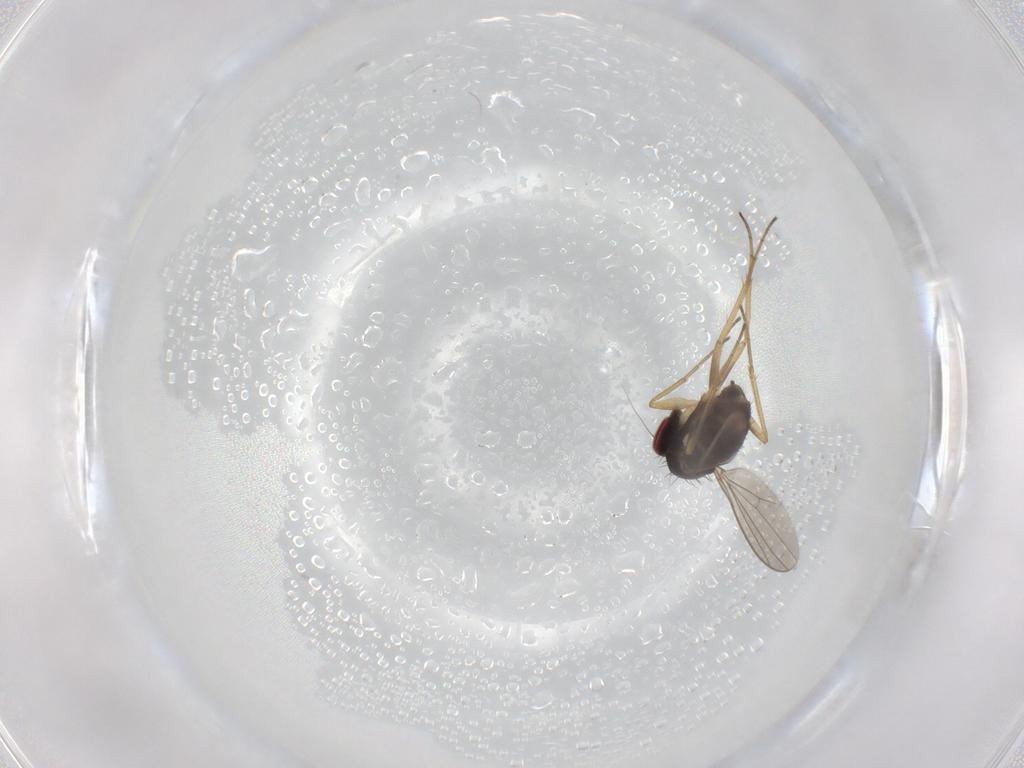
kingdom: Animalia
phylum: Arthropoda
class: Insecta
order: Diptera
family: Dolichopodidae
